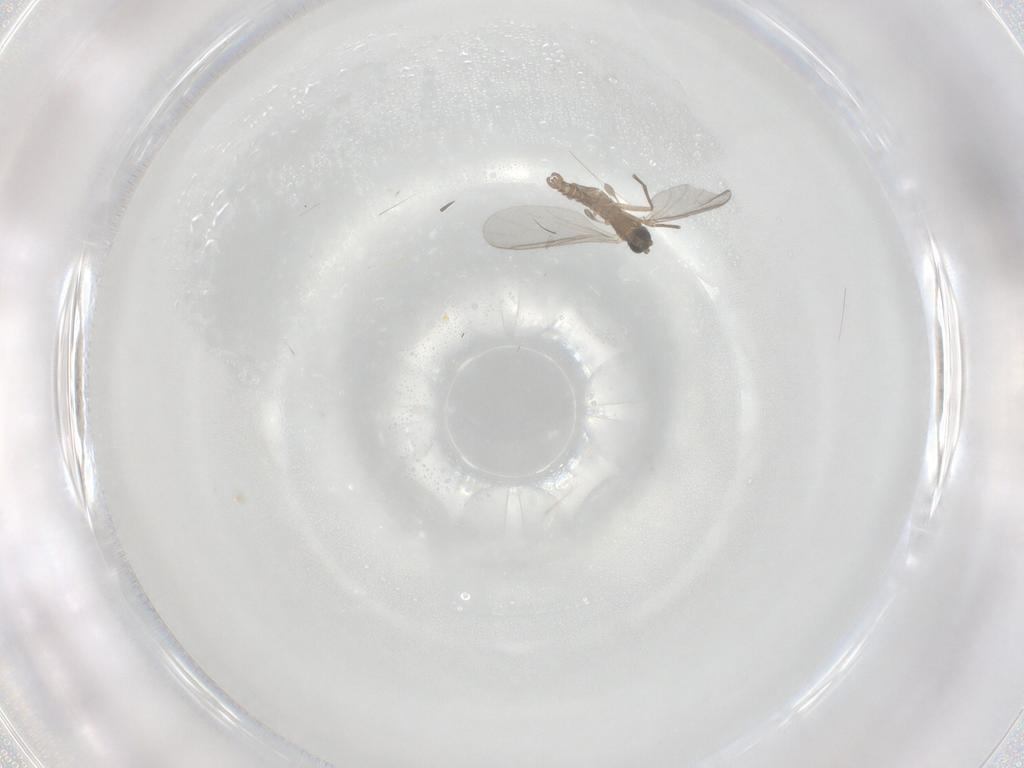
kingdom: Animalia
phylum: Arthropoda
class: Insecta
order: Diptera
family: Sciaridae
